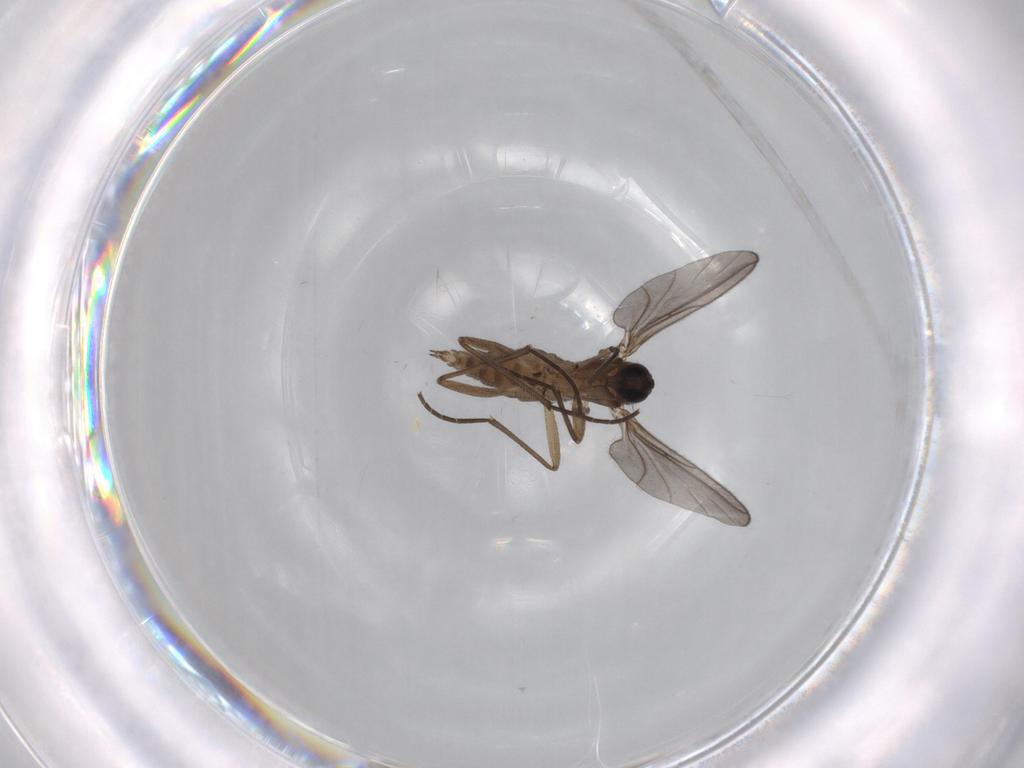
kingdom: Animalia
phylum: Arthropoda
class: Insecta
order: Diptera
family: Sciaridae
